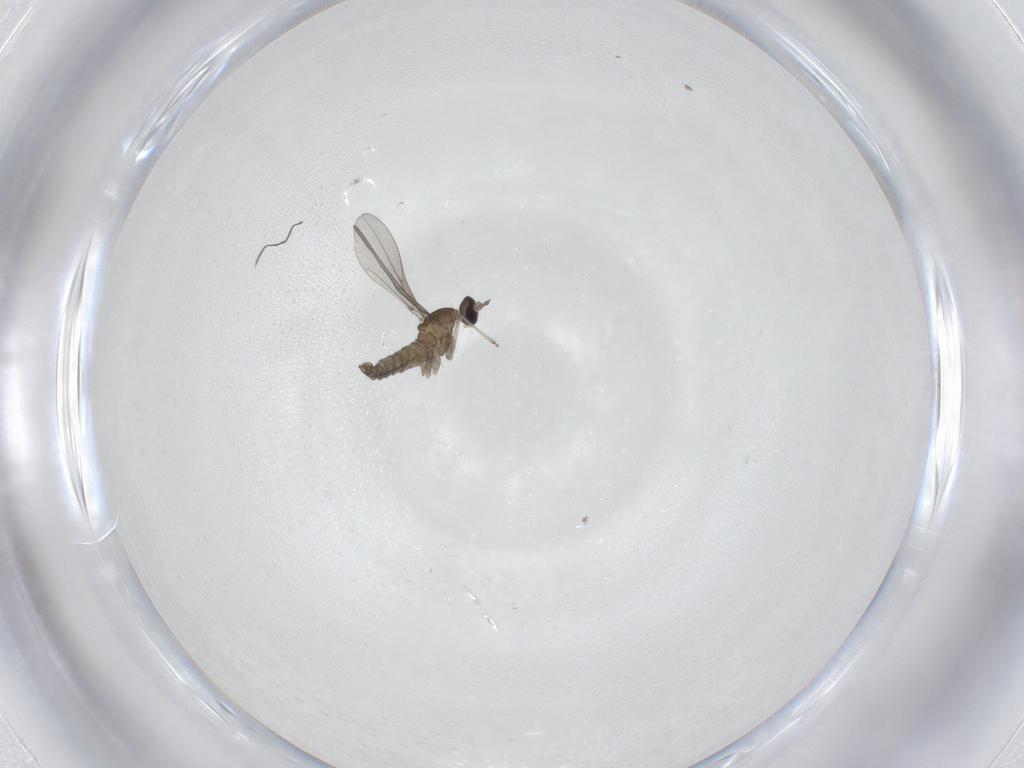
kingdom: Animalia
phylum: Arthropoda
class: Insecta
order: Diptera
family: Cecidomyiidae
